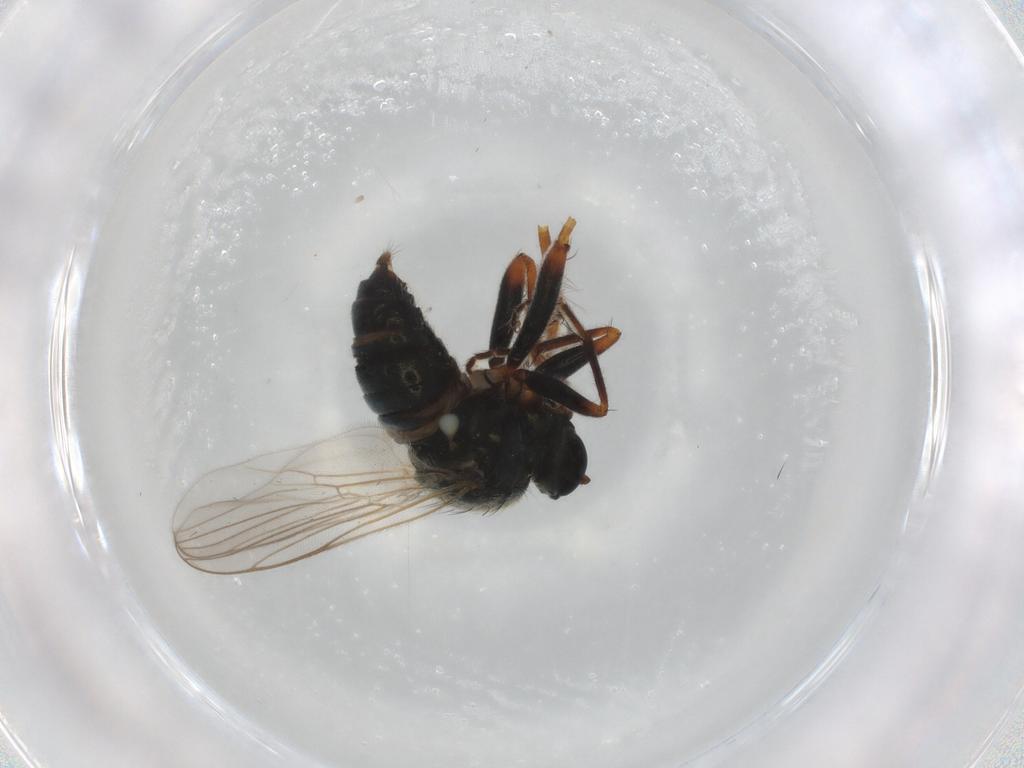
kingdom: Animalia
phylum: Arthropoda
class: Insecta
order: Diptera
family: Hybotidae
